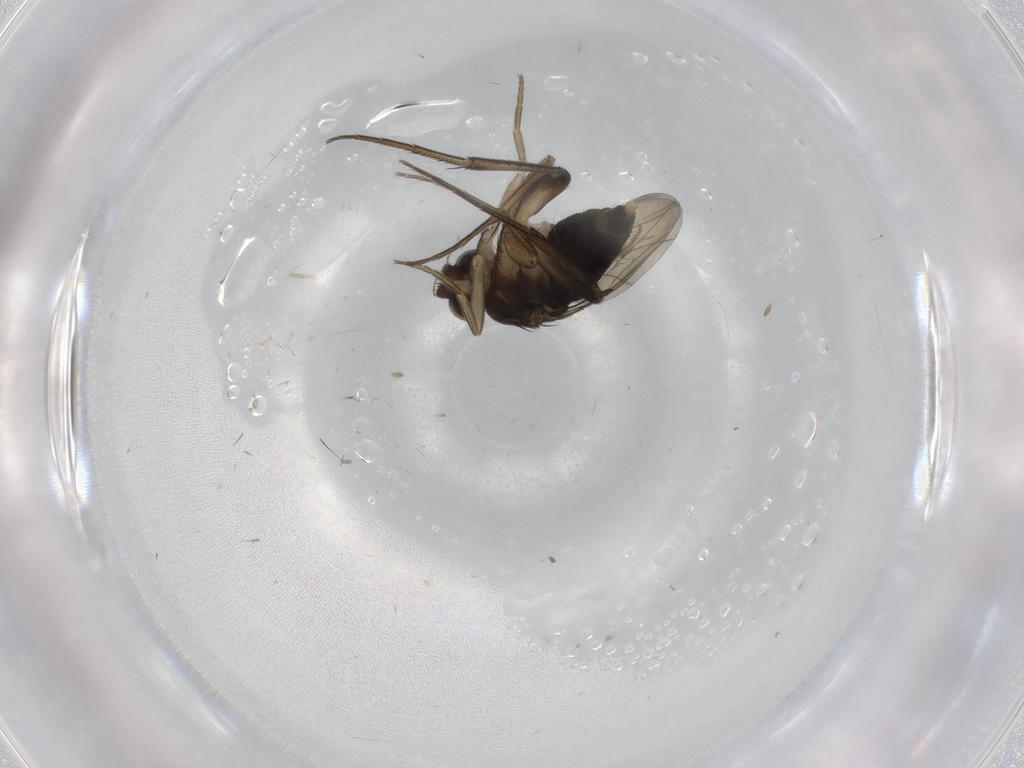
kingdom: Animalia
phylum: Arthropoda
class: Insecta
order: Diptera
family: Phoridae
